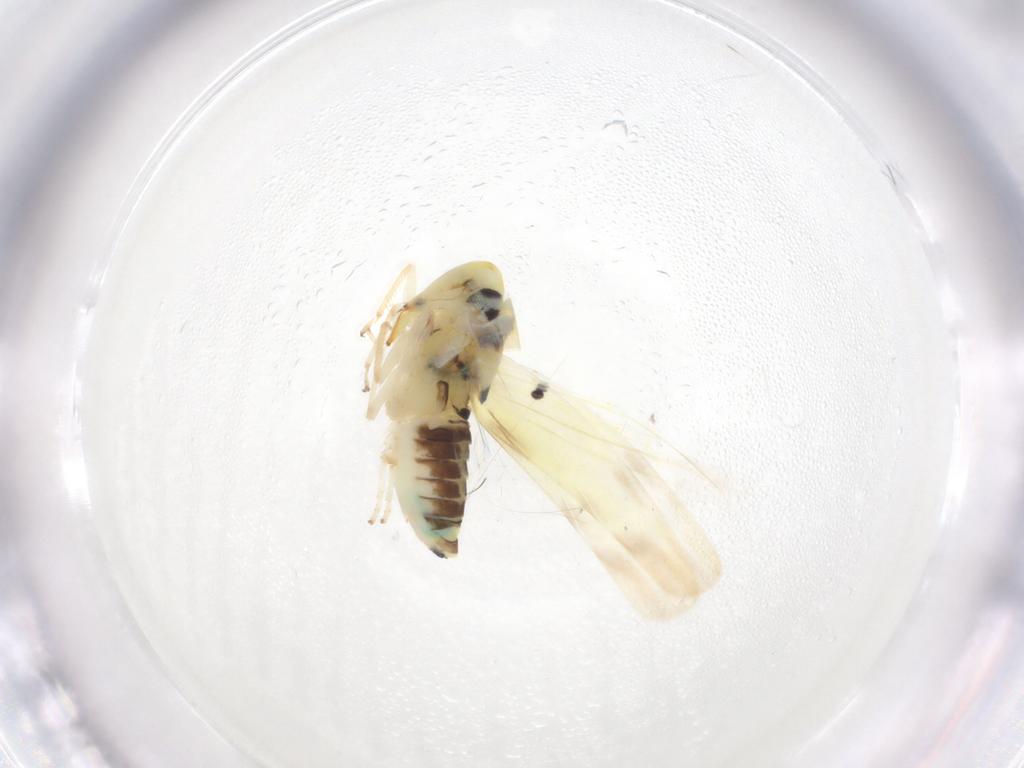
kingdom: Animalia
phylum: Arthropoda
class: Insecta
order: Hemiptera
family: Cicadellidae
